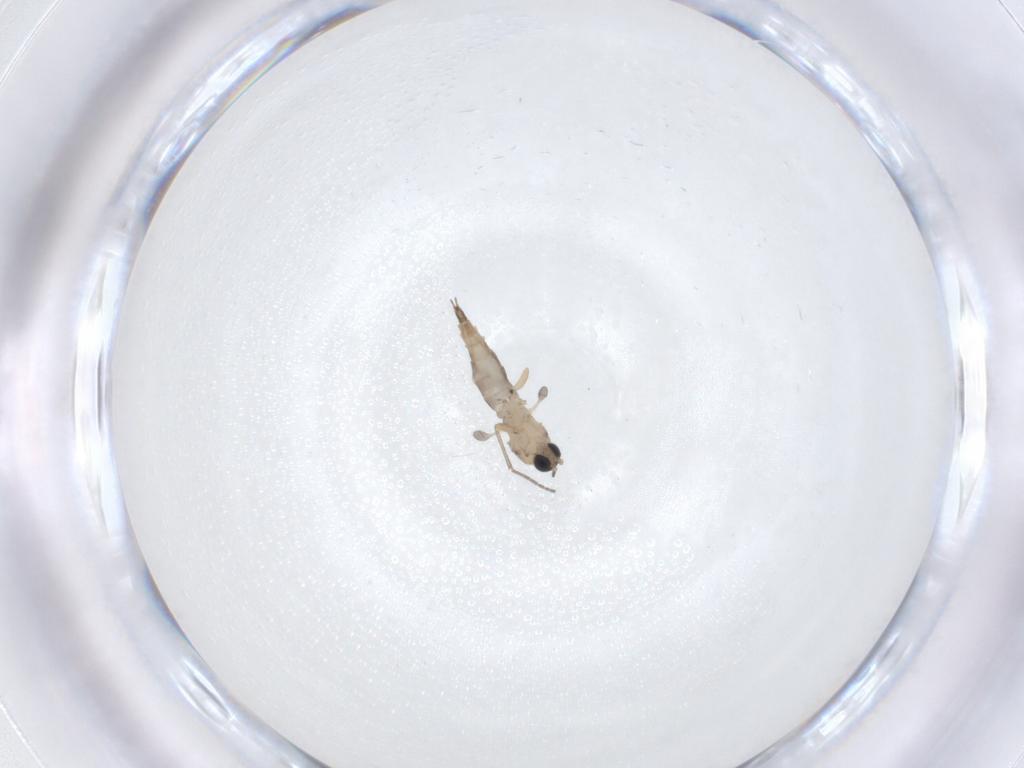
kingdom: Animalia
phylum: Arthropoda
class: Insecta
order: Diptera
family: Sciaridae
